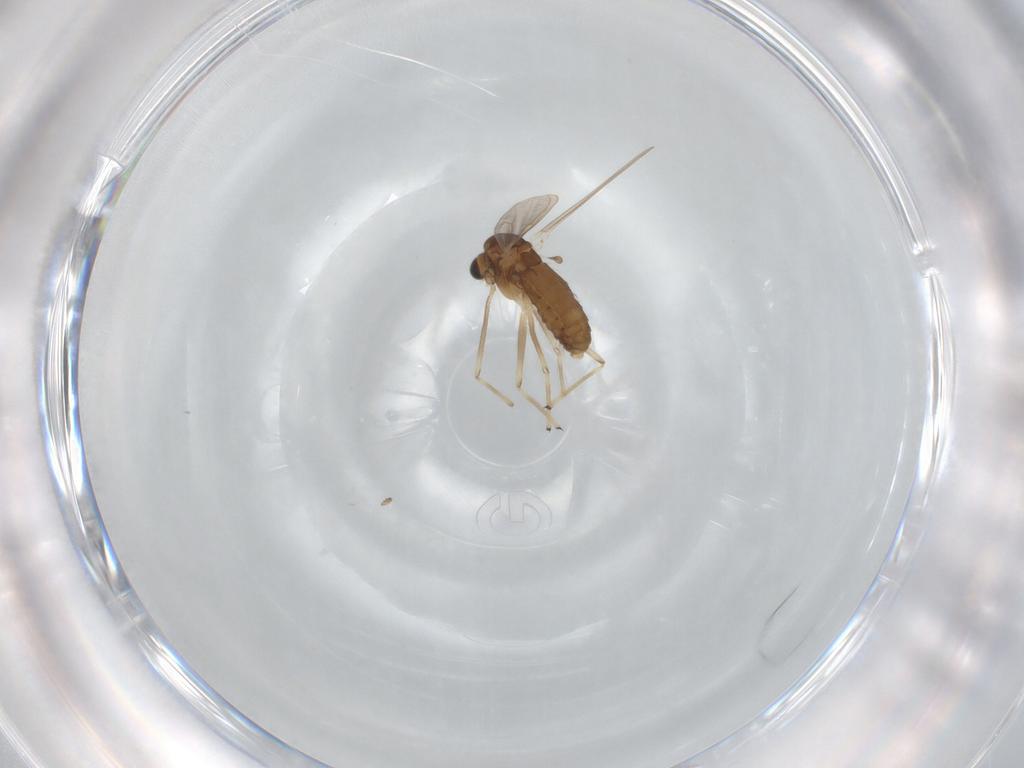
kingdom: Animalia
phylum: Arthropoda
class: Insecta
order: Diptera
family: Chironomidae
